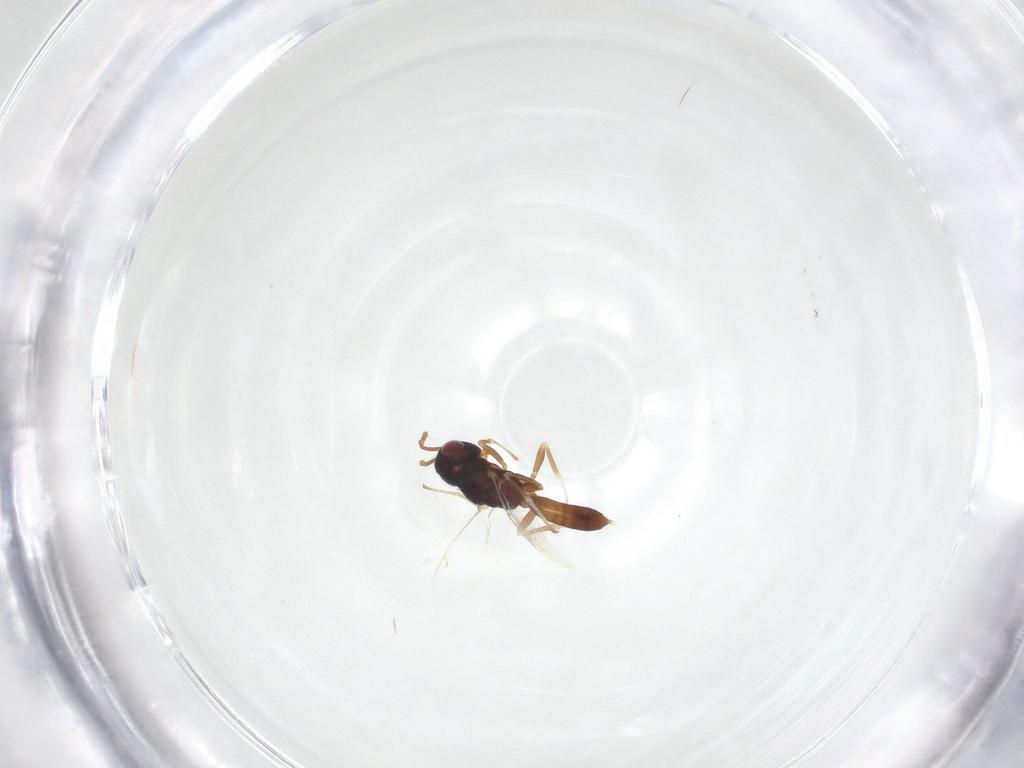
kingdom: Animalia
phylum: Arthropoda
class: Insecta
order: Hymenoptera
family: Pteromalidae
